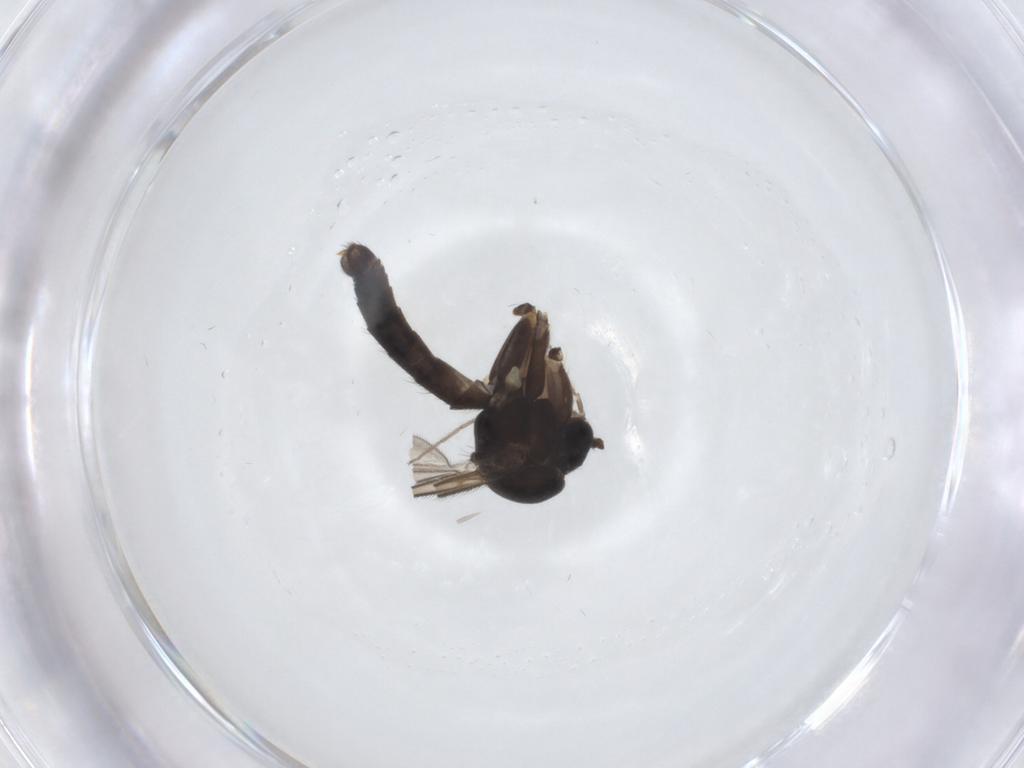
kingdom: Animalia
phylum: Arthropoda
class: Insecta
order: Diptera
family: Mycetophilidae
